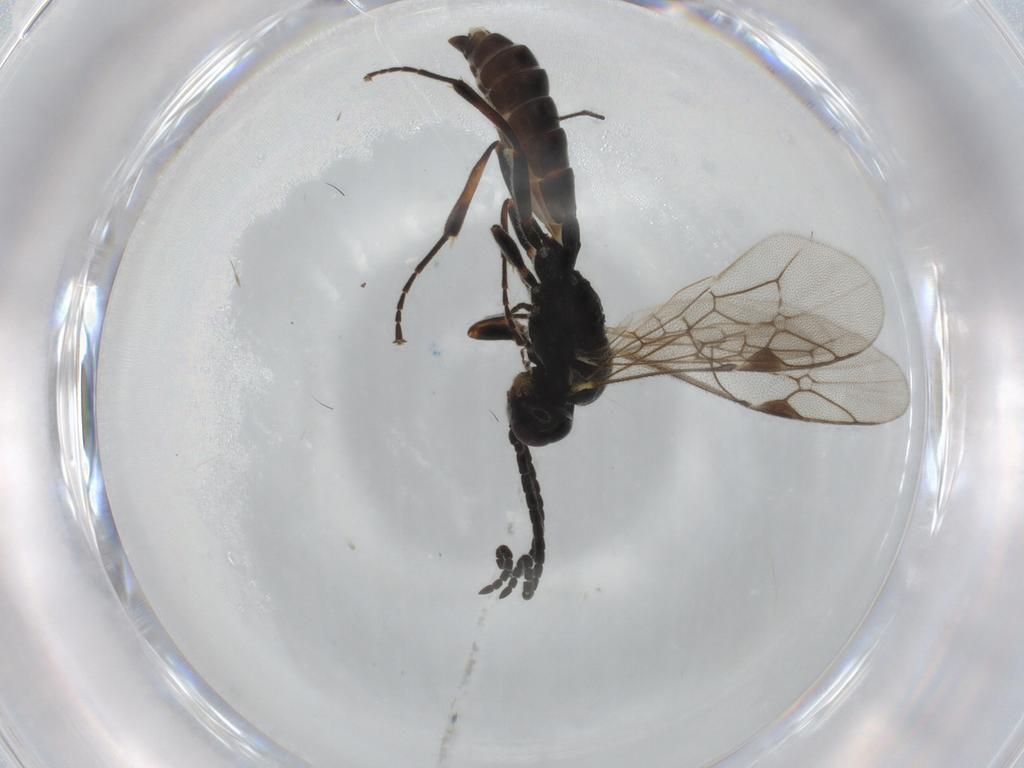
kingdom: Animalia
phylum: Arthropoda
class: Insecta
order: Hymenoptera
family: Ichneumonidae
